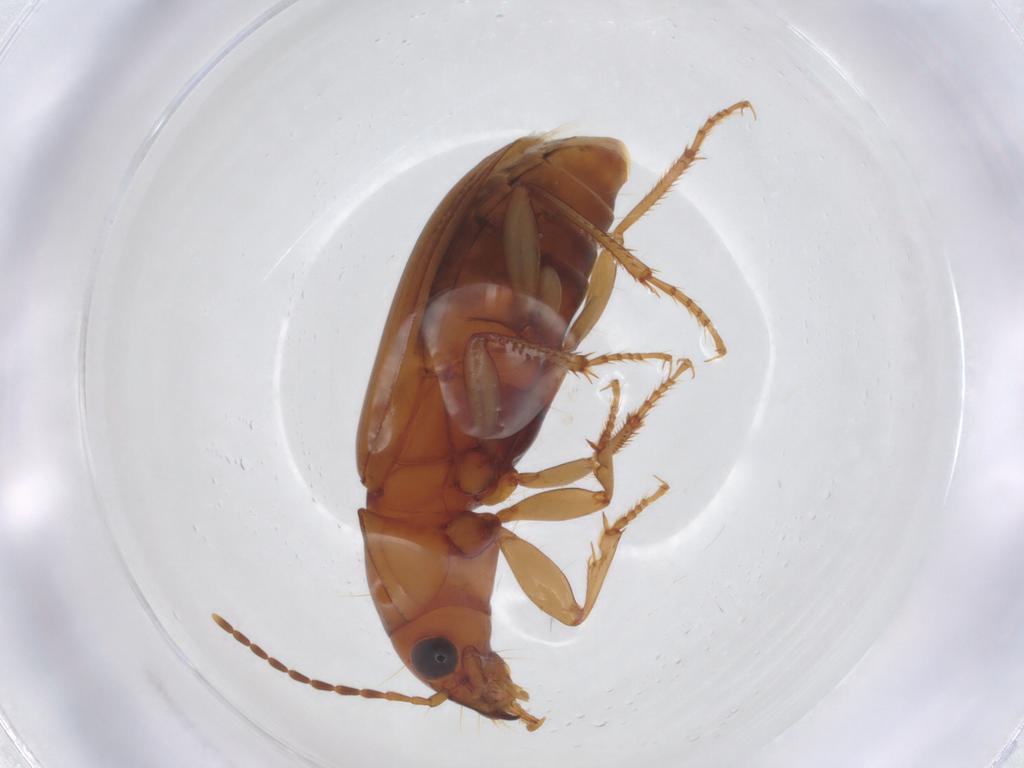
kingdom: Animalia
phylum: Arthropoda
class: Insecta
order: Coleoptera
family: Carabidae
